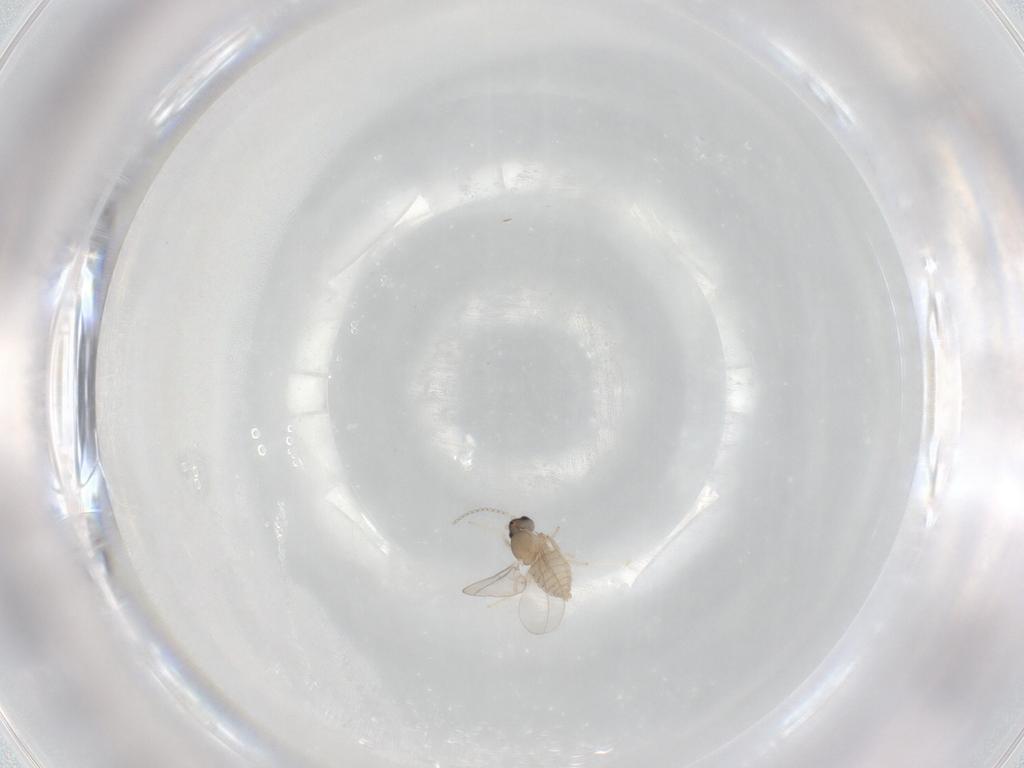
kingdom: Animalia
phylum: Arthropoda
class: Insecta
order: Diptera
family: Cecidomyiidae
